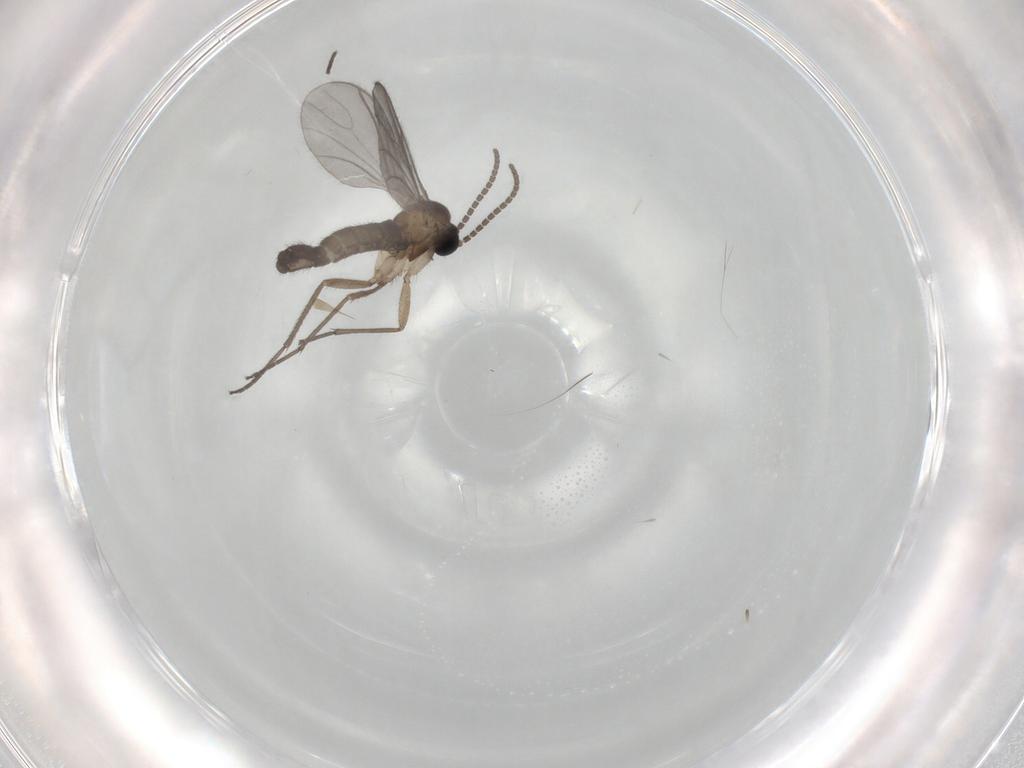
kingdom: Animalia
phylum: Arthropoda
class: Insecta
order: Diptera
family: Sciaridae
